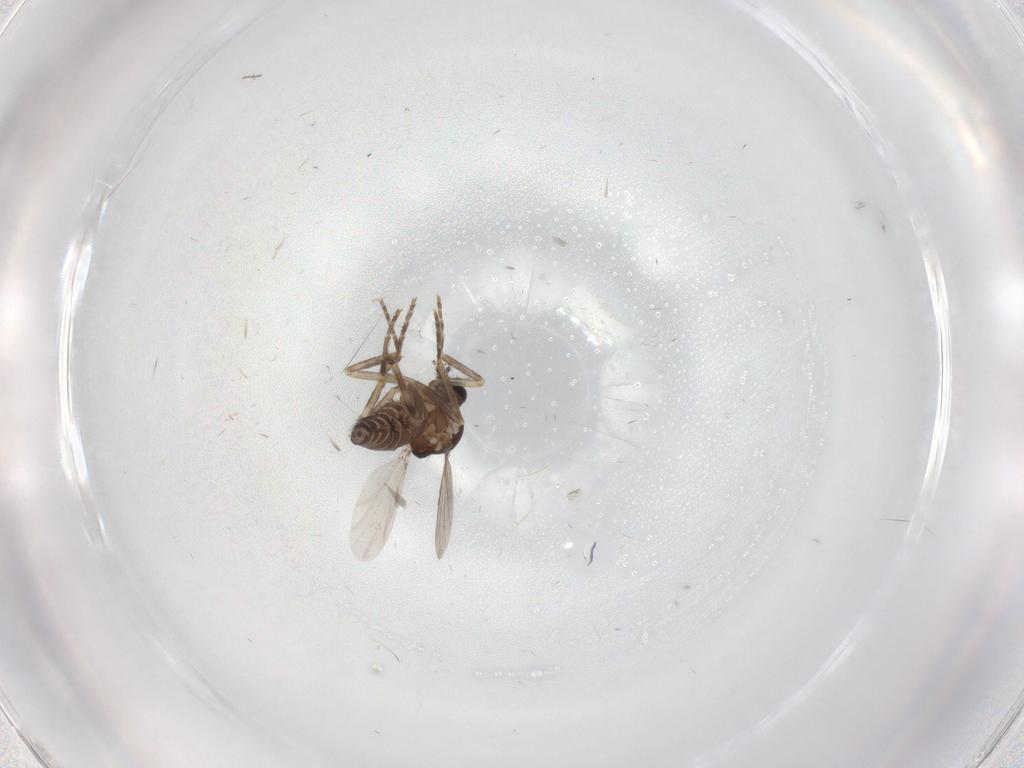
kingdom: Animalia
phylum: Arthropoda
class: Insecta
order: Diptera
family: Ceratopogonidae
